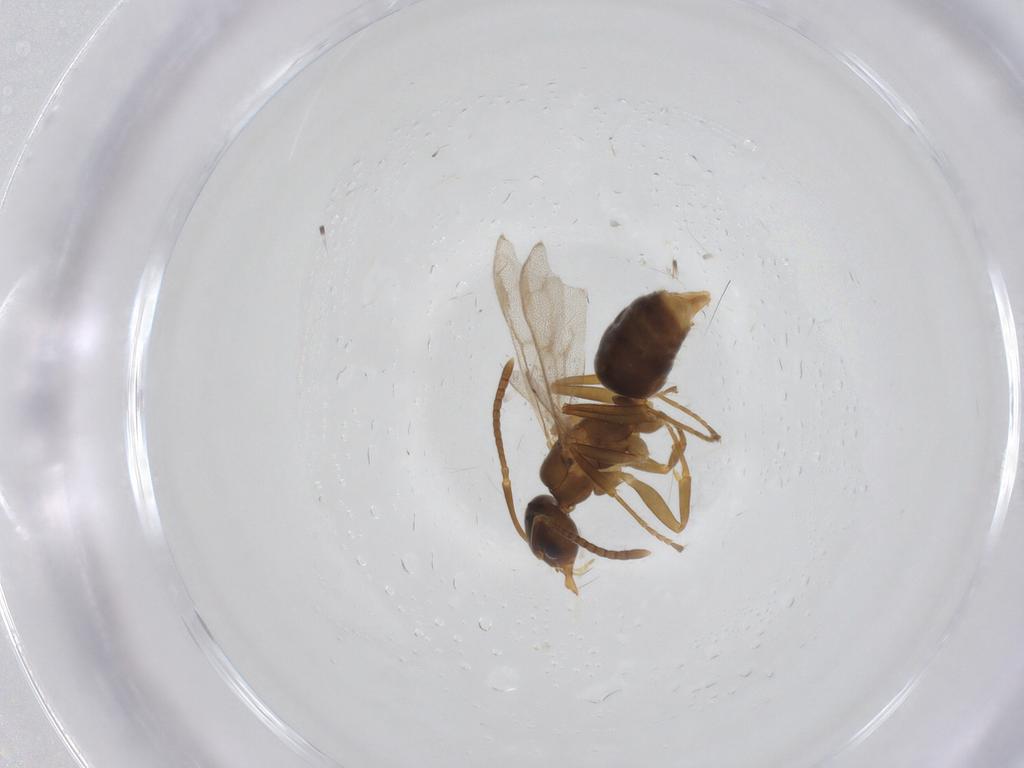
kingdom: Animalia
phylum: Arthropoda
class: Insecta
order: Hymenoptera
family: Formicidae
